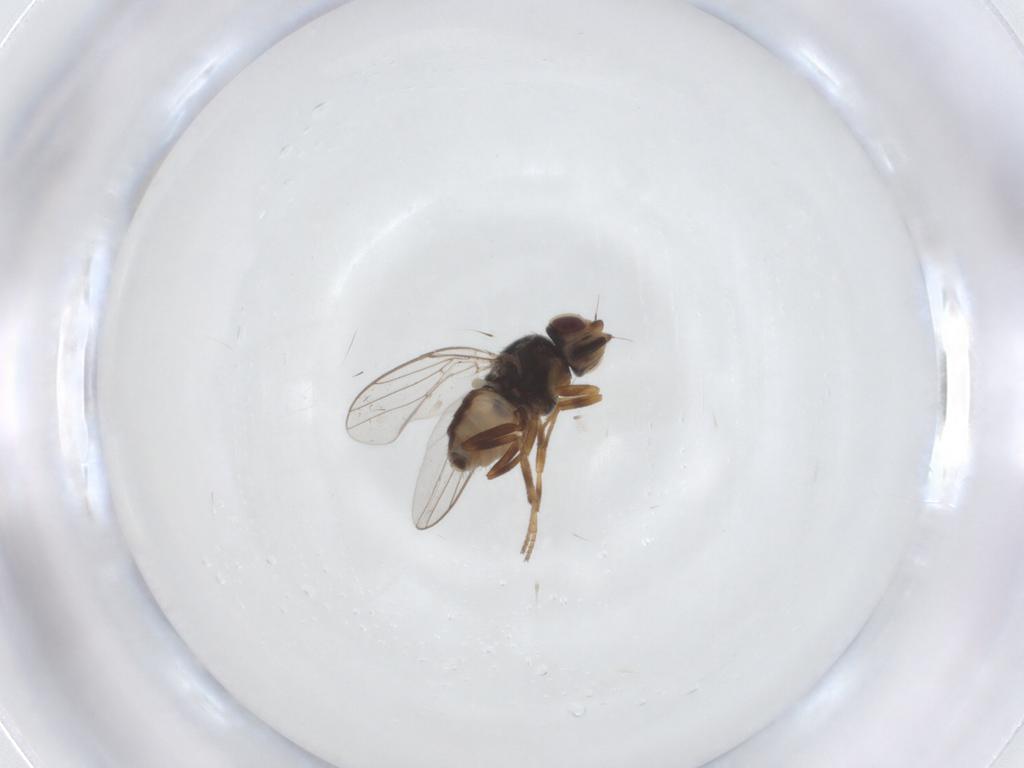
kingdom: Animalia
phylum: Arthropoda
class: Insecta
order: Diptera
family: Chloropidae
